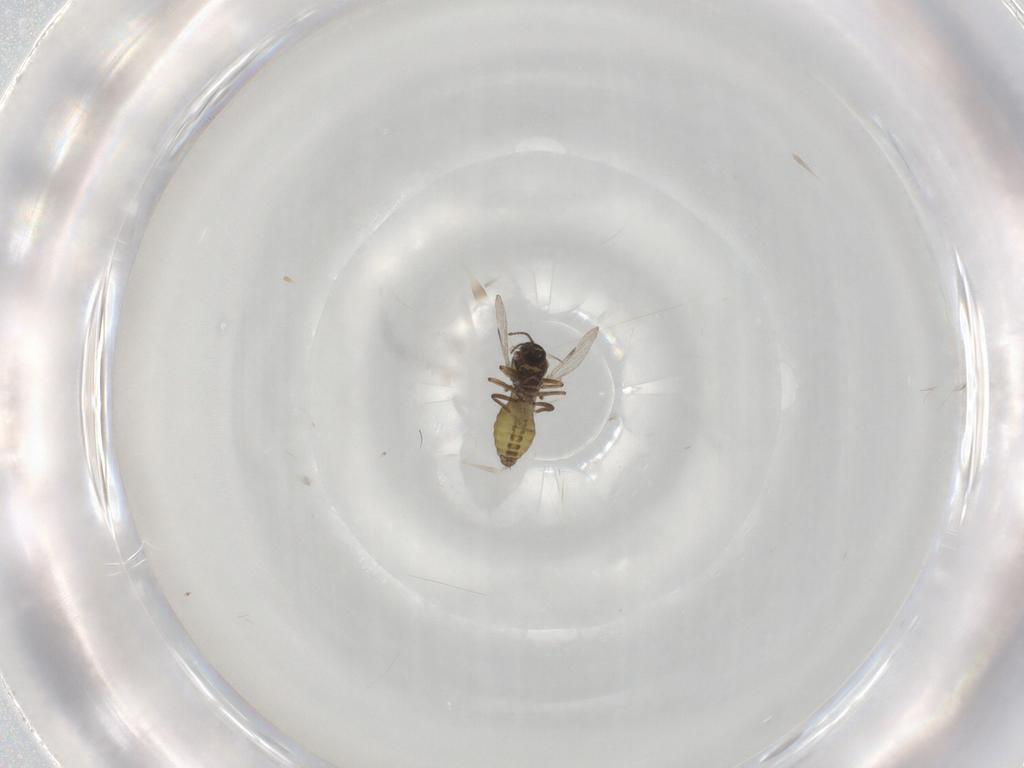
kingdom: Animalia
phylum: Arthropoda
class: Insecta
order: Diptera
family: Ceratopogonidae
